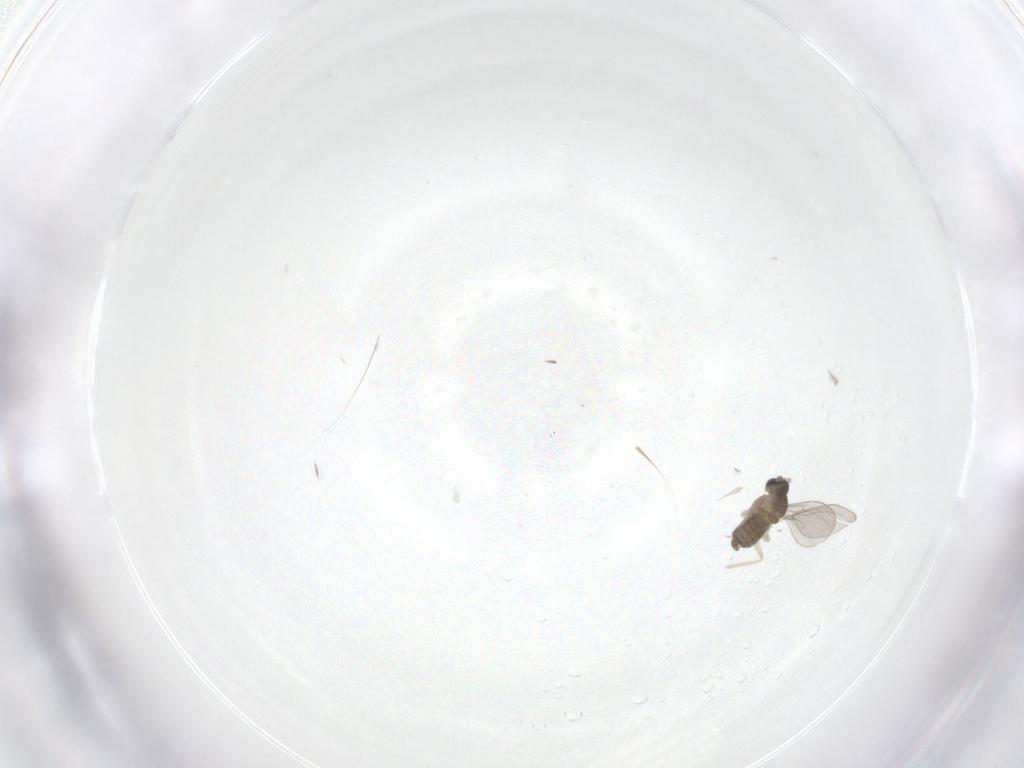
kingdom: Animalia
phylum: Arthropoda
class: Insecta
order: Diptera
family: Cecidomyiidae
